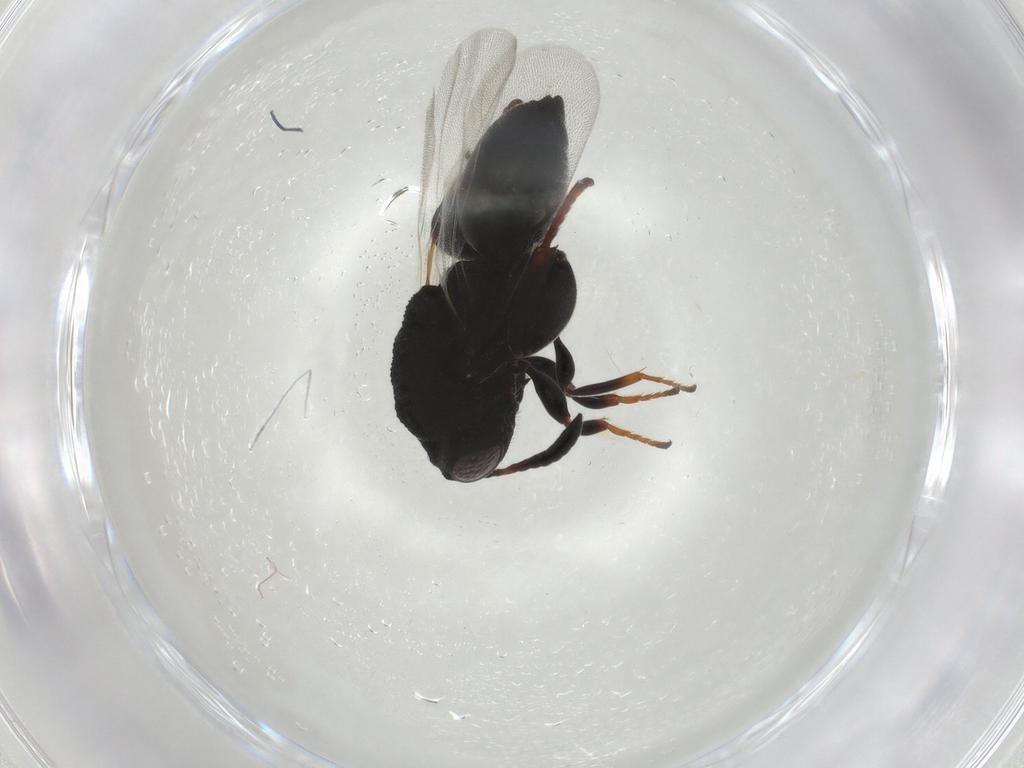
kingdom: Animalia
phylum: Arthropoda
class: Insecta
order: Hymenoptera
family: Chalcididae
